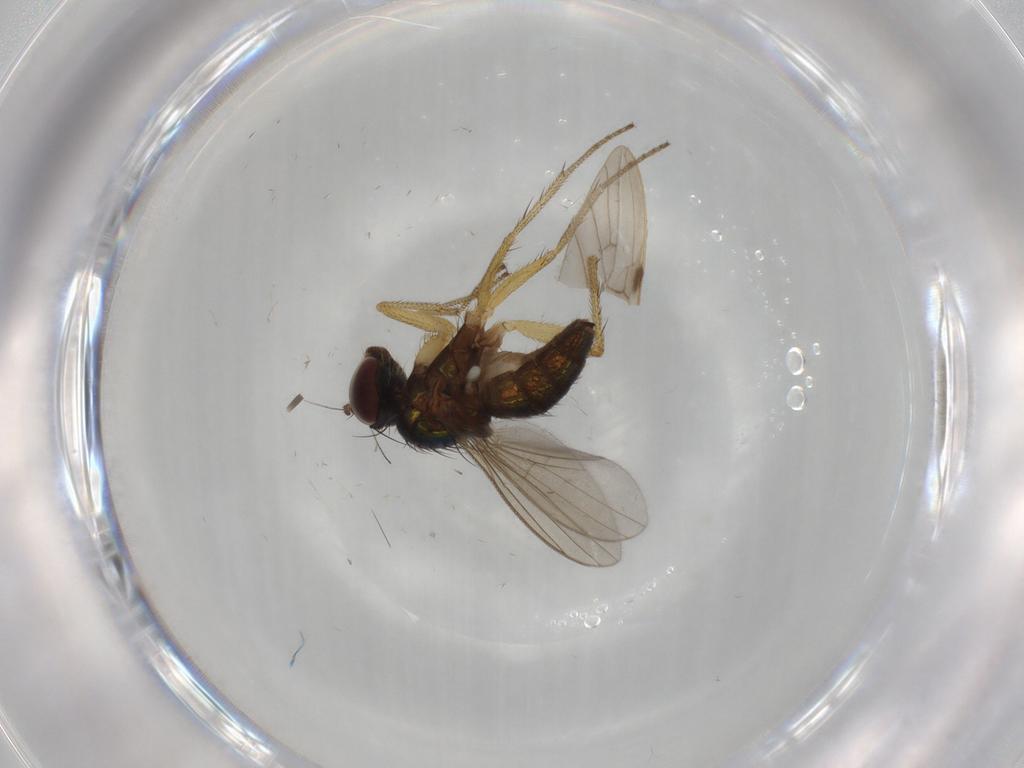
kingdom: Animalia
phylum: Arthropoda
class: Insecta
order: Diptera
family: Dolichopodidae
